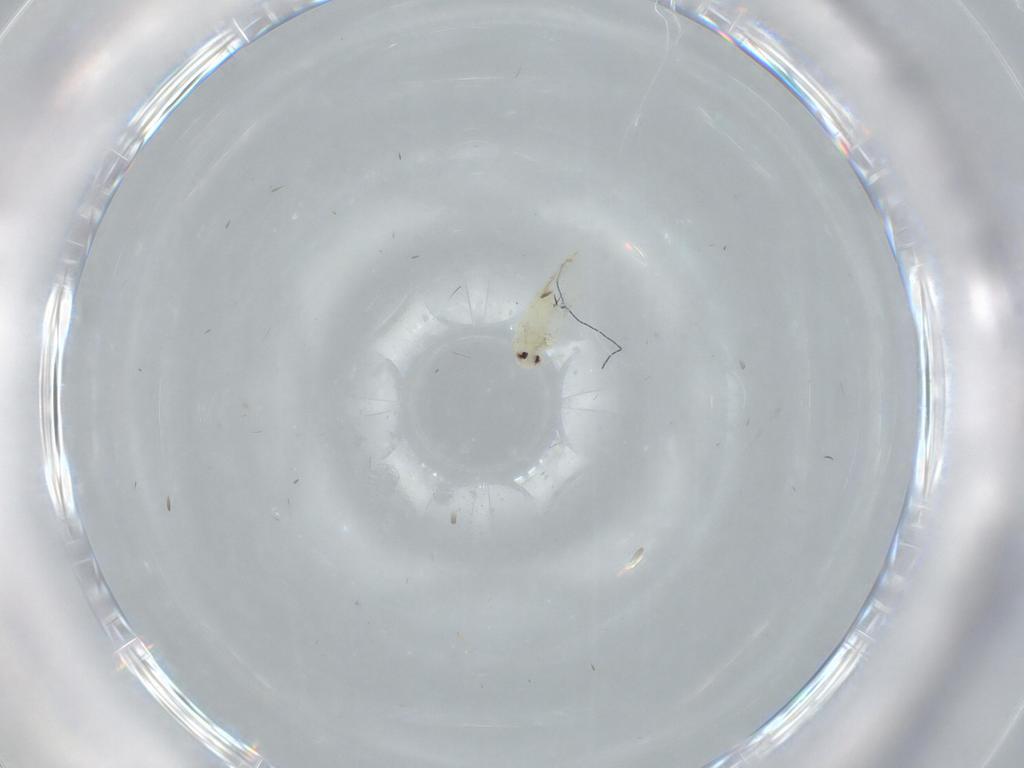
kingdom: Animalia
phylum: Arthropoda
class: Insecta
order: Hemiptera
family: Aleyrodidae
